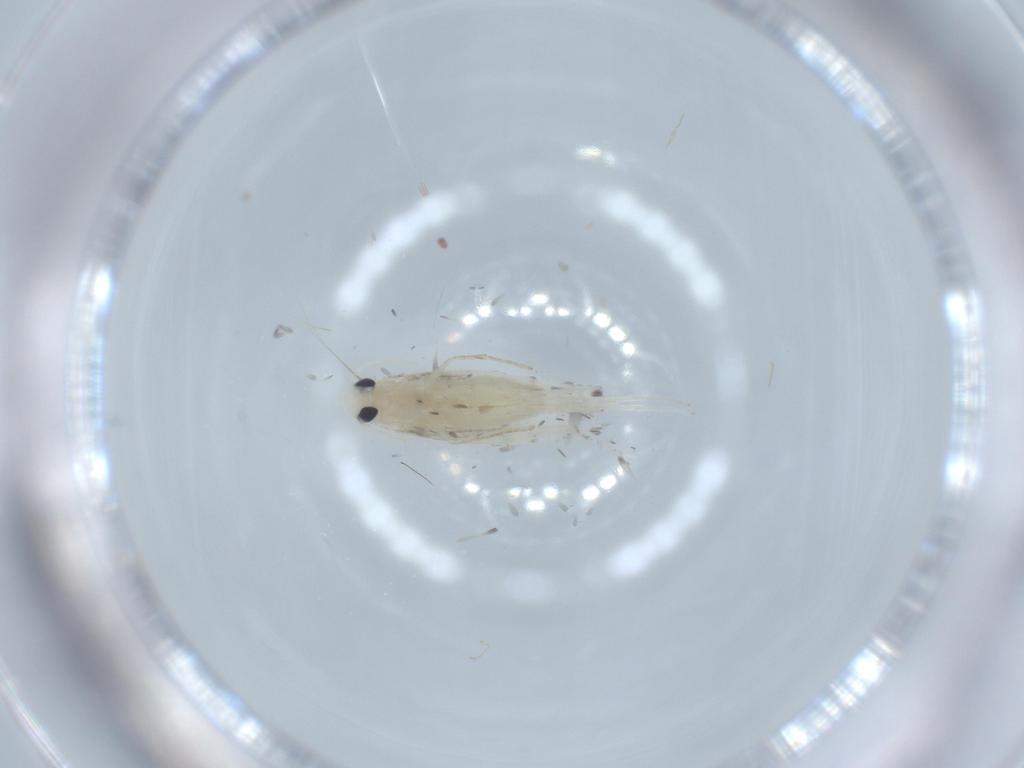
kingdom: Animalia
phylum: Arthropoda
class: Insecta
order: Lepidoptera
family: Gracillariidae
